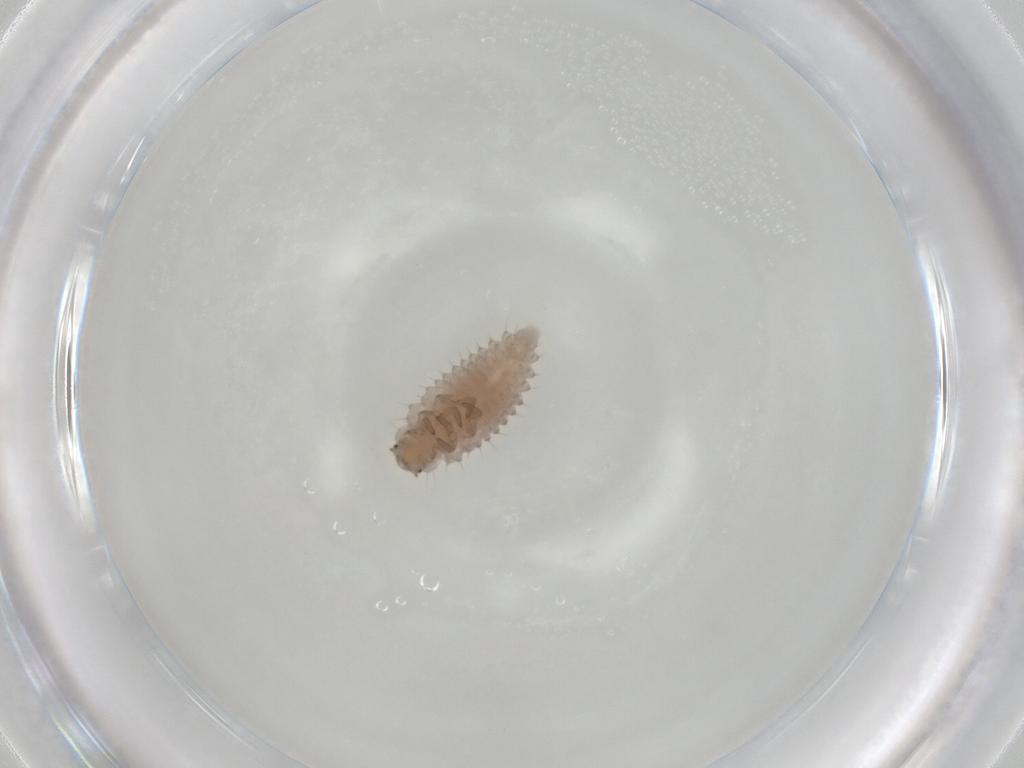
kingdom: Animalia
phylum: Arthropoda
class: Insecta
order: Coleoptera
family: Coccinellidae
